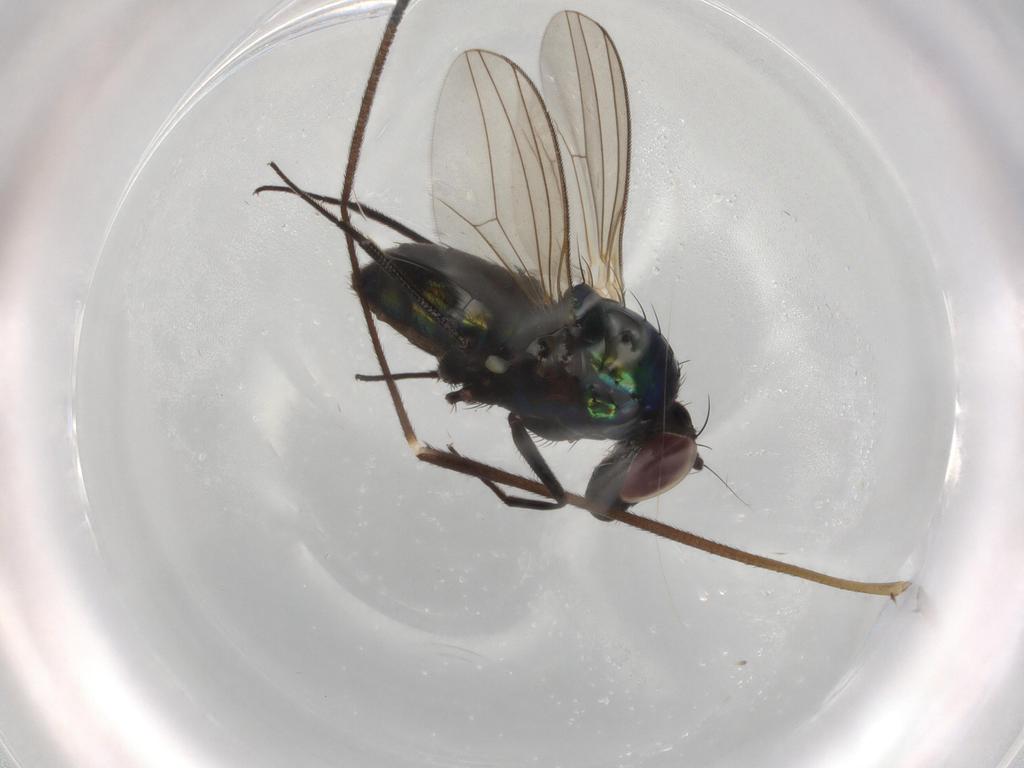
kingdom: Animalia
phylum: Arthropoda
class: Insecta
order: Diptera
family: Dolichopodidae
